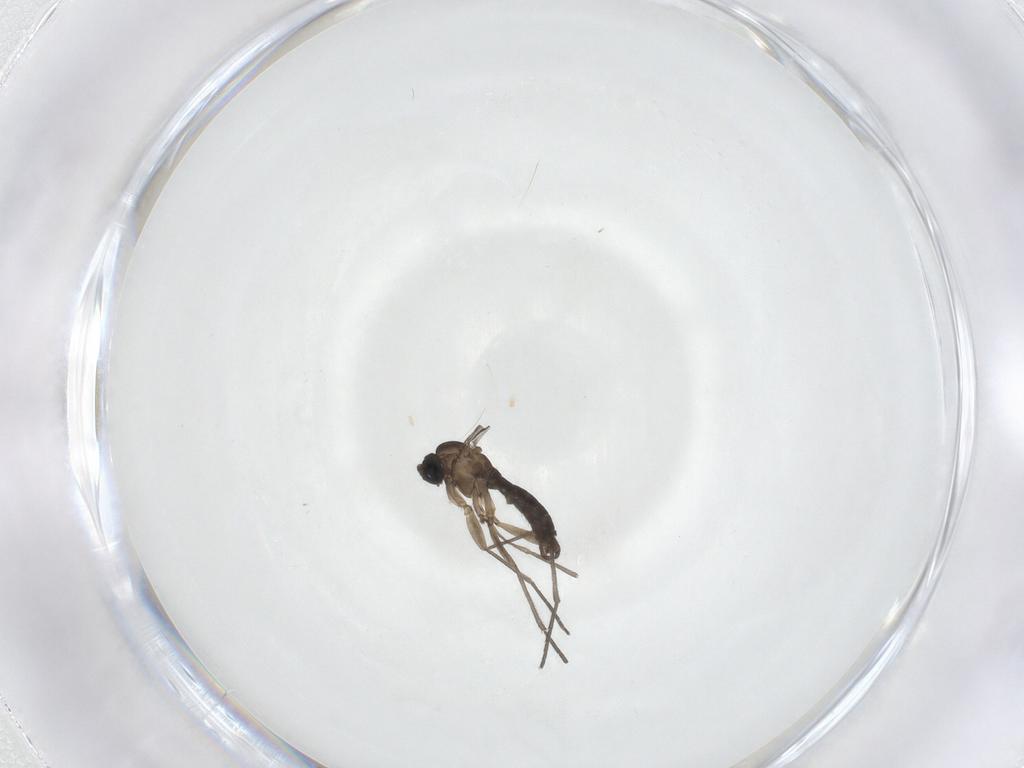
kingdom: Animalia
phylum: Arthropoda
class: Insecta
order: Diptera
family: Sciaridae
